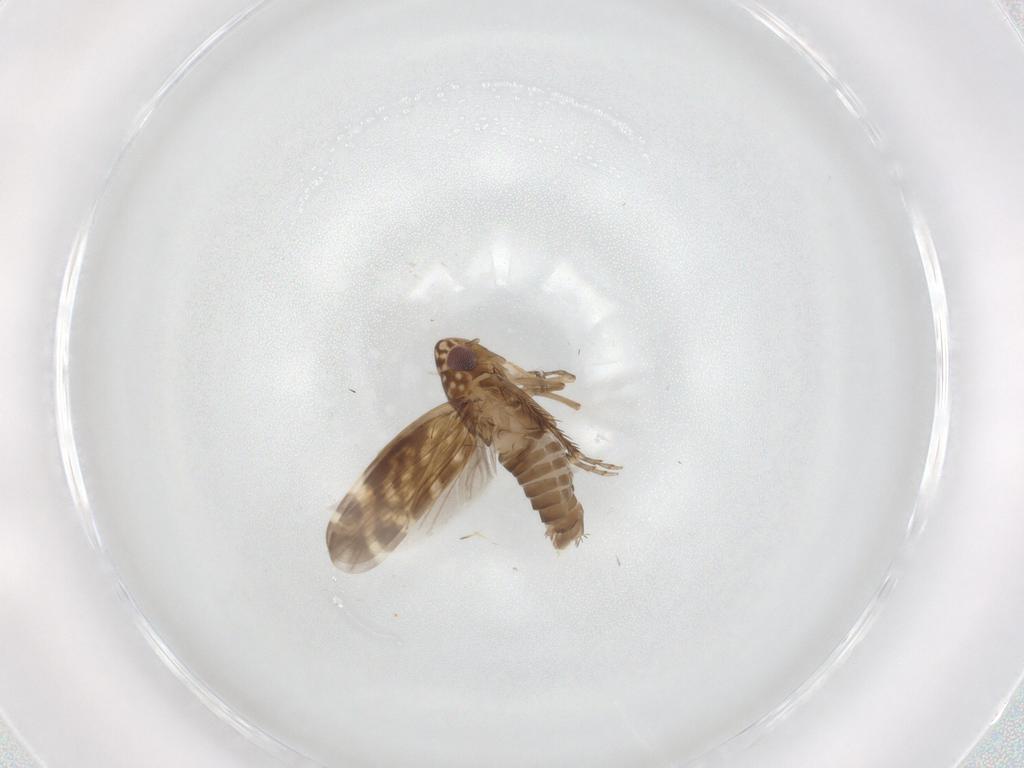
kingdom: Animalia
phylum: Arthropoda
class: Insecta
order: Hemiptera
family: Cicadellidae
